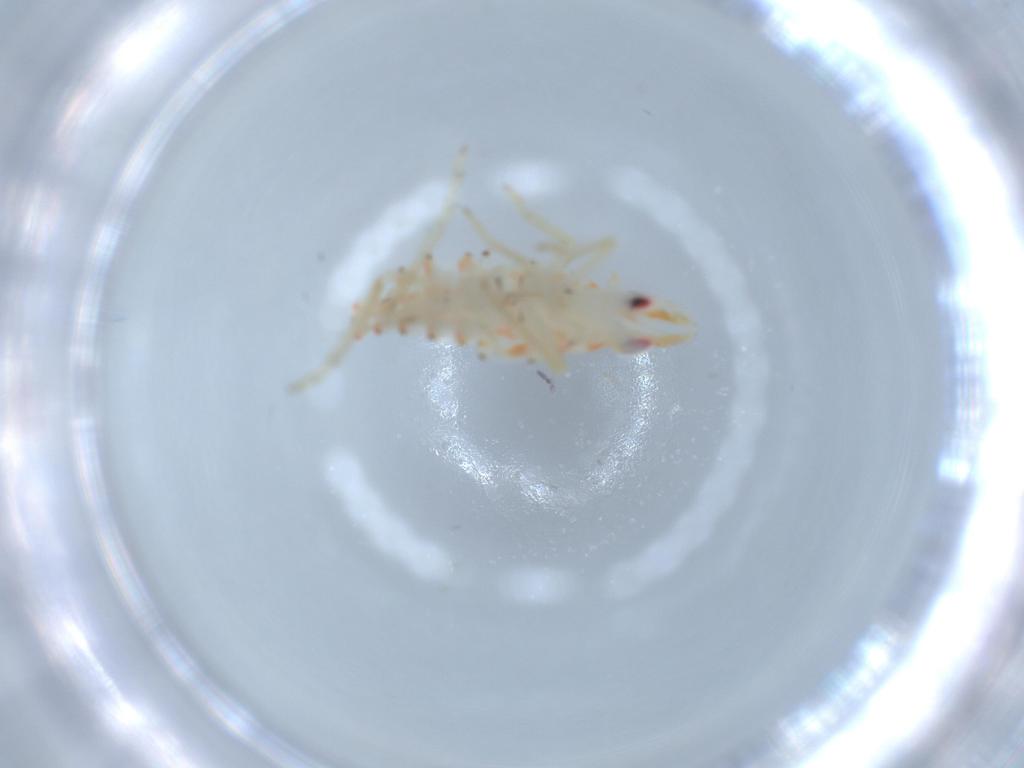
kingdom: Animalia
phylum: Arthropoda
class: Insecta
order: Hemiptera
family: Tropiduchidae
